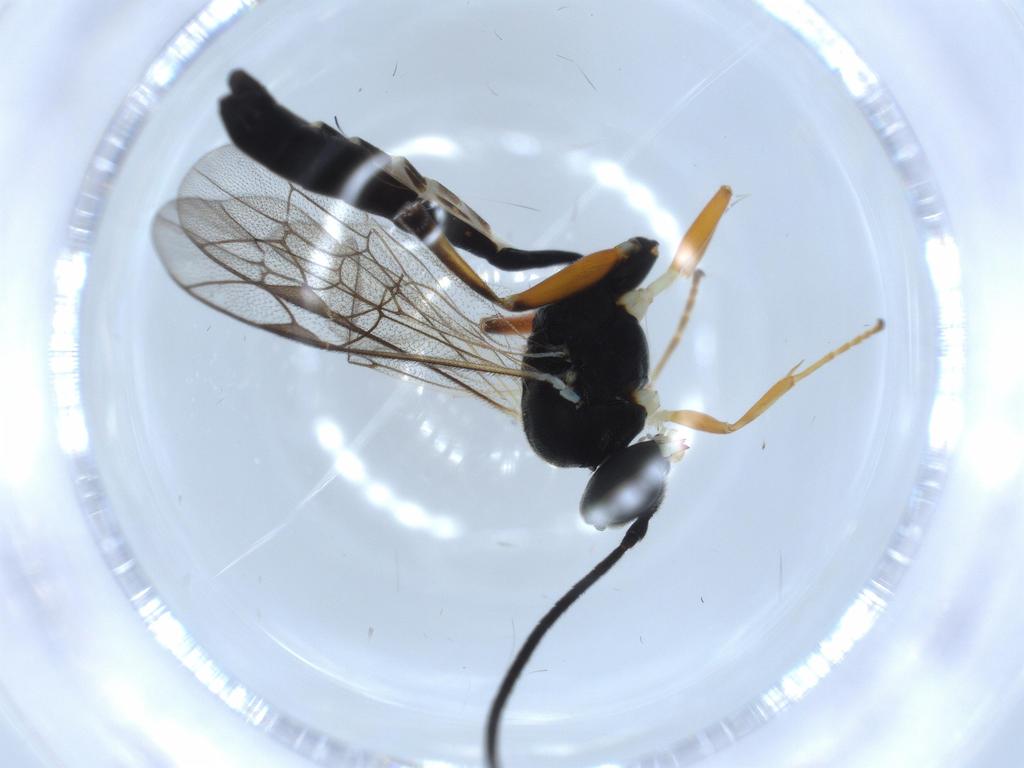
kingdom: Animalia
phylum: Arthropoda
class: Insecta
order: Hymenoptera
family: Ichneumonidae
